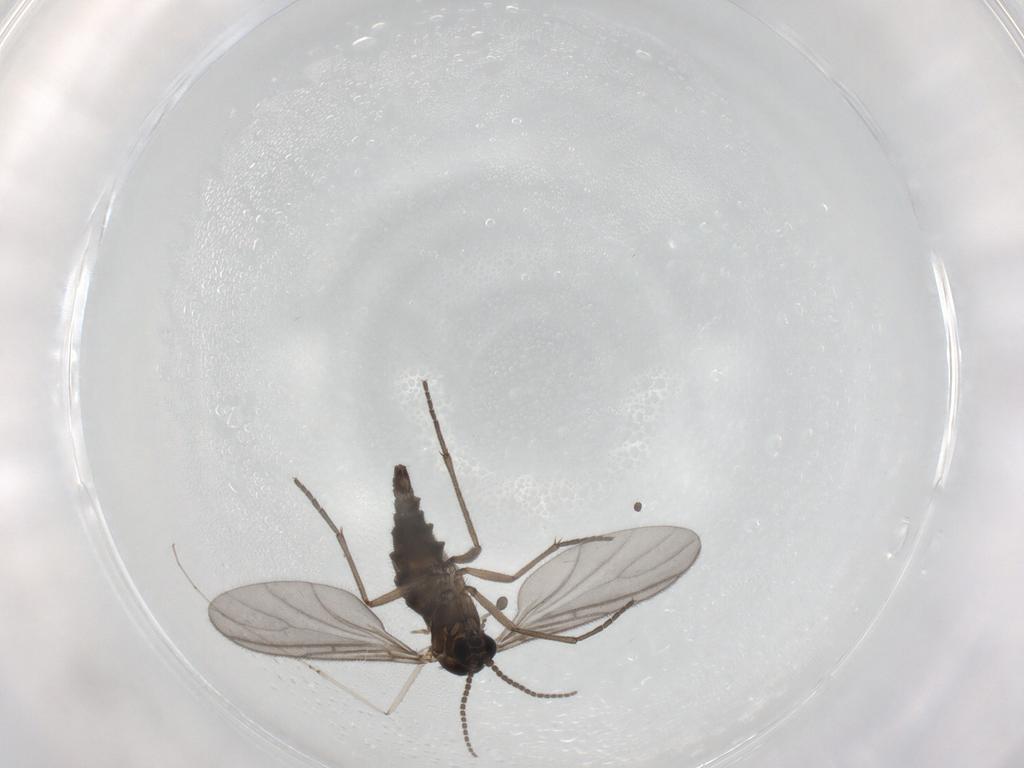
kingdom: Animalia
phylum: Arthropoda
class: Insecta
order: Diptera
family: Sciaridae
